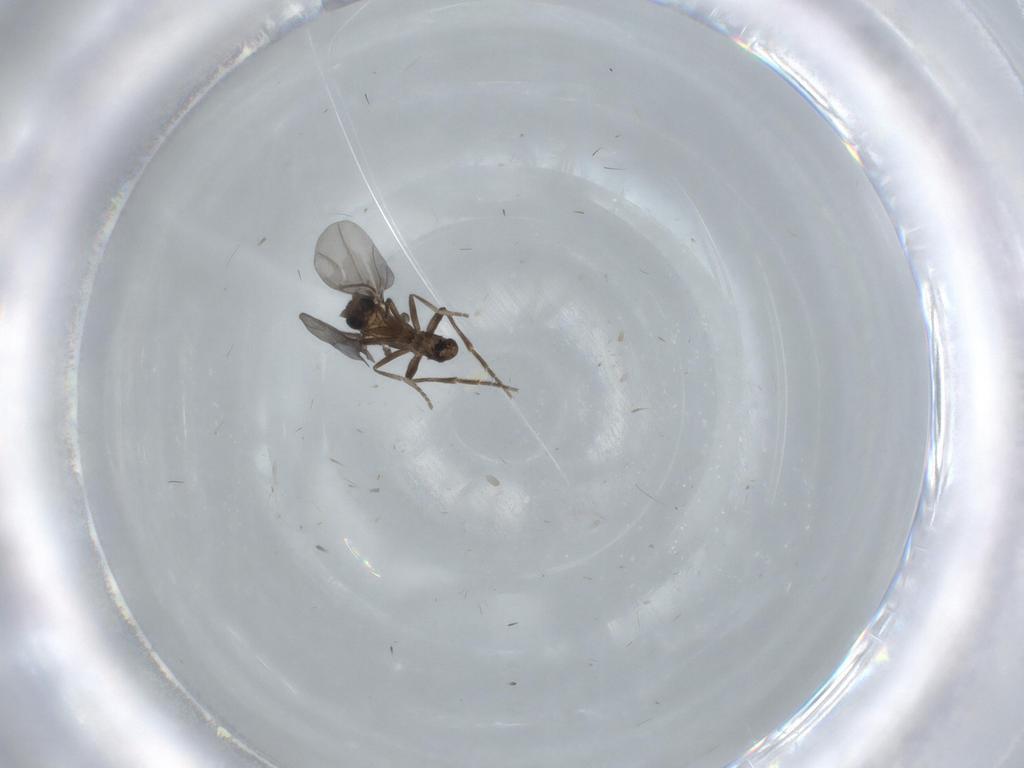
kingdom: Animalia
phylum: Arthropoda
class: Insecta
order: Diptera
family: Phoridae
